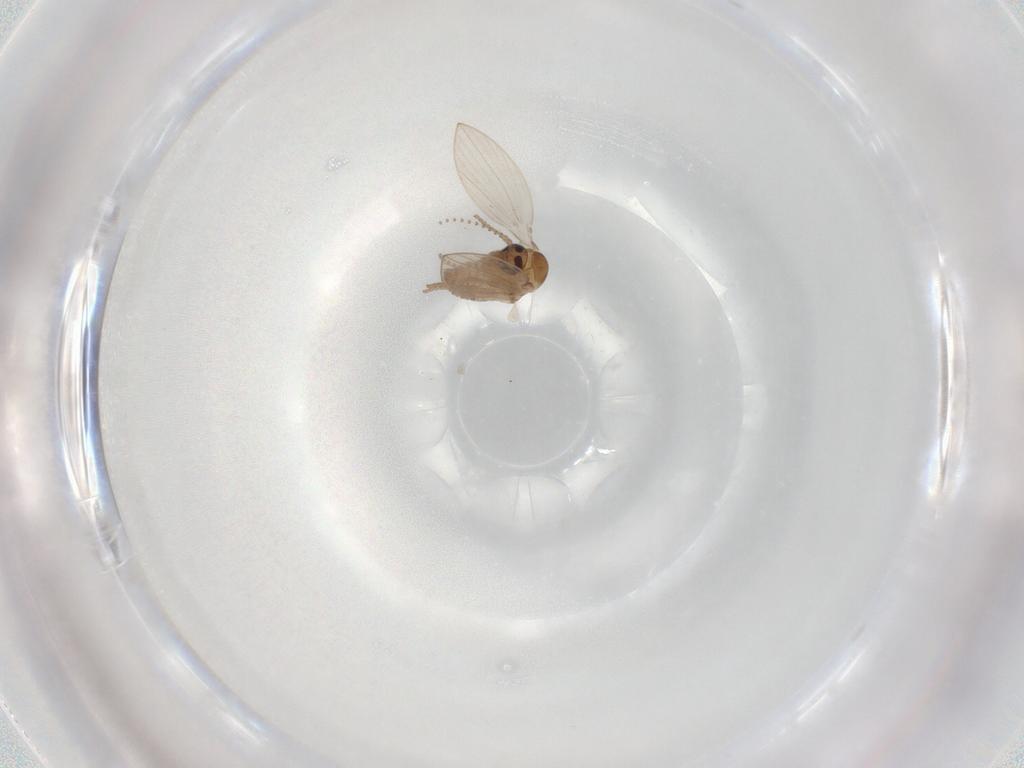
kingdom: Animalia
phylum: Arthropoda
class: Insecta
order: Diptera
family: Psychodidae
